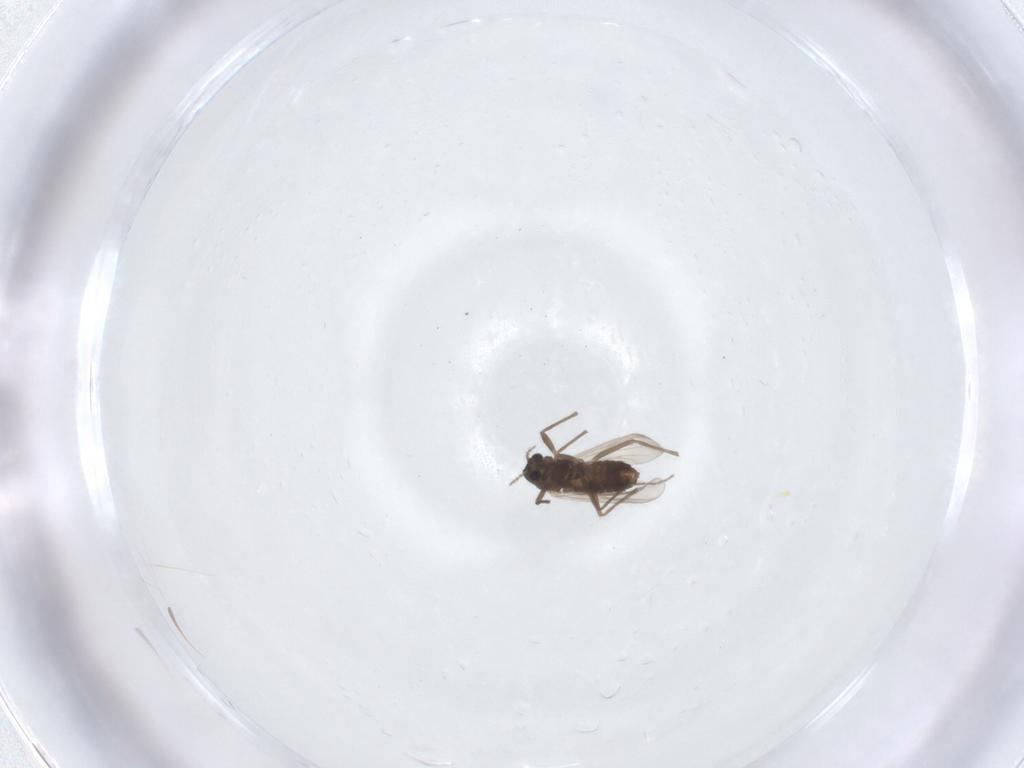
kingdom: Animalia
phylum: Arthropoda
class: Insecta
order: Diptera
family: Chironomidae
